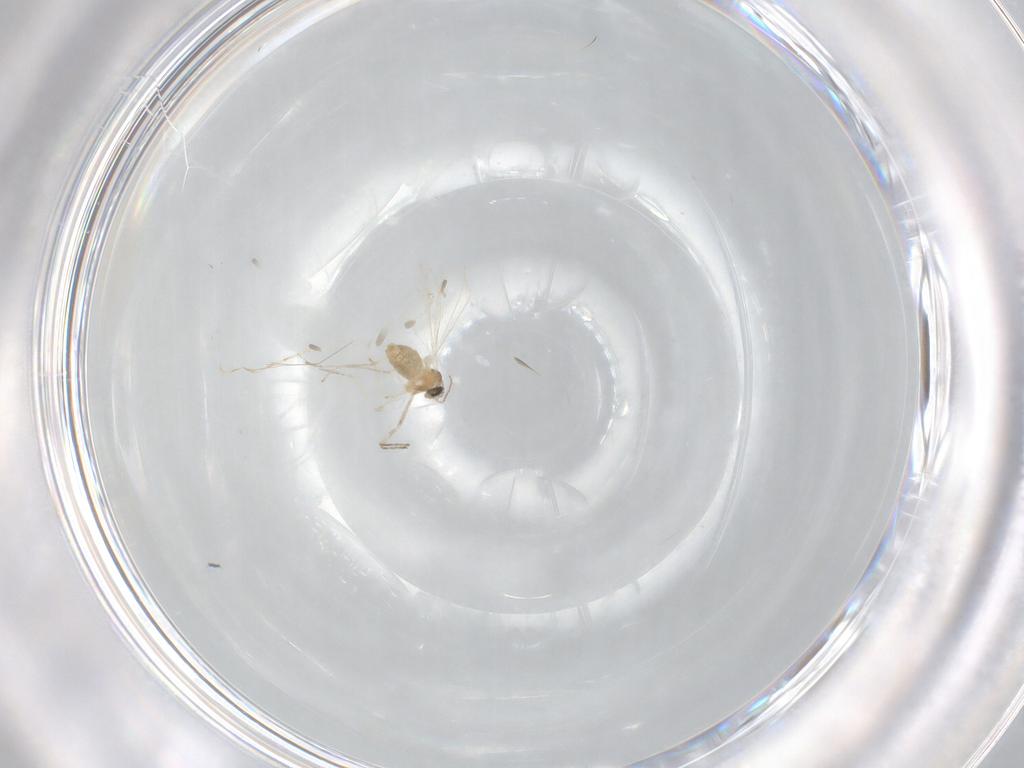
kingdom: Animalia
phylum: Arthropoda
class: Insecta
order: Diptera
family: Cecidomyiidae
